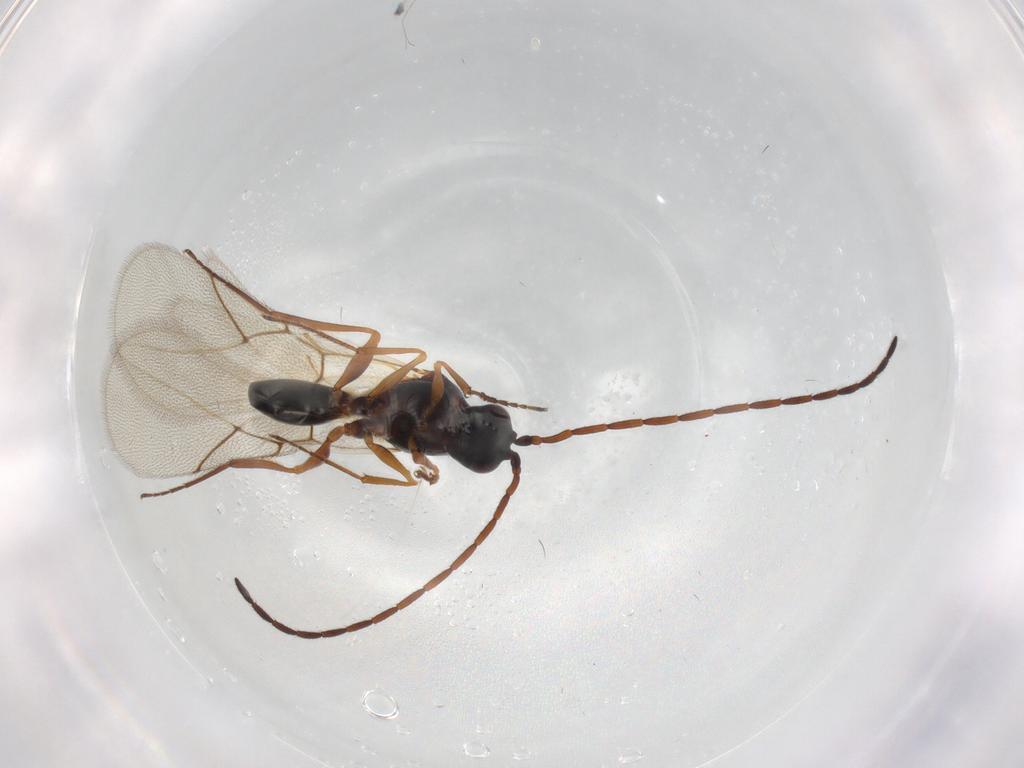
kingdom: Animalia
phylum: Arthropoda
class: Insecta
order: Hymenoptera
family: Figitidae
